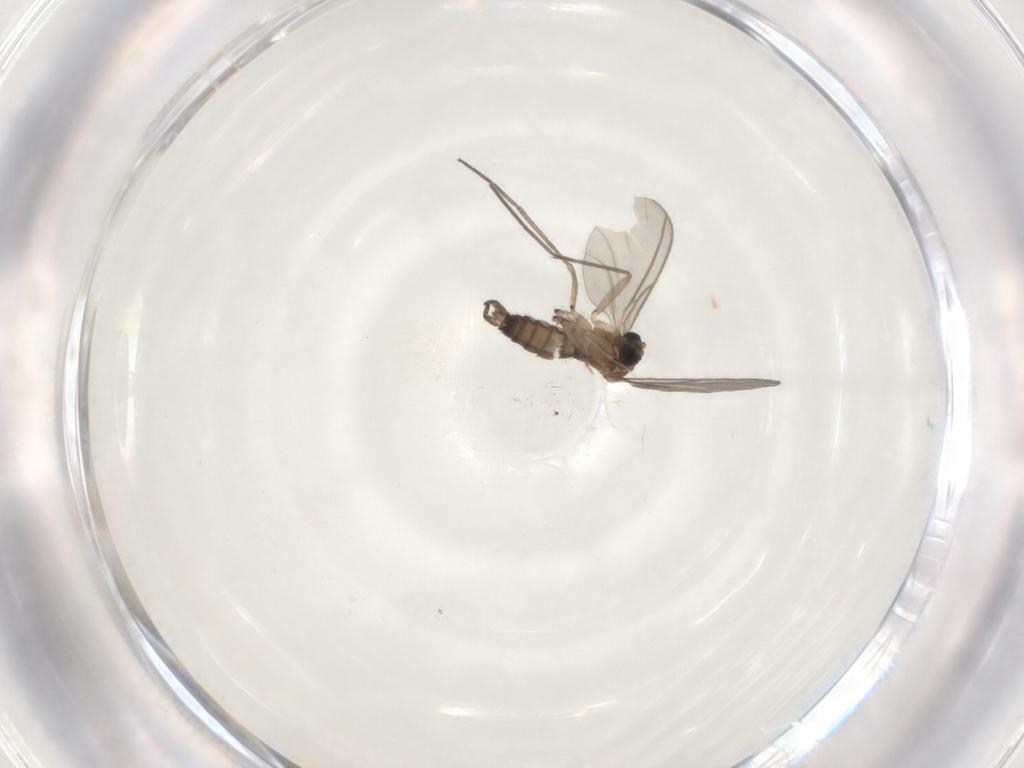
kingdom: Animalia
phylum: Arthropoda
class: Insecta
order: Diptera
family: Sciaridae
